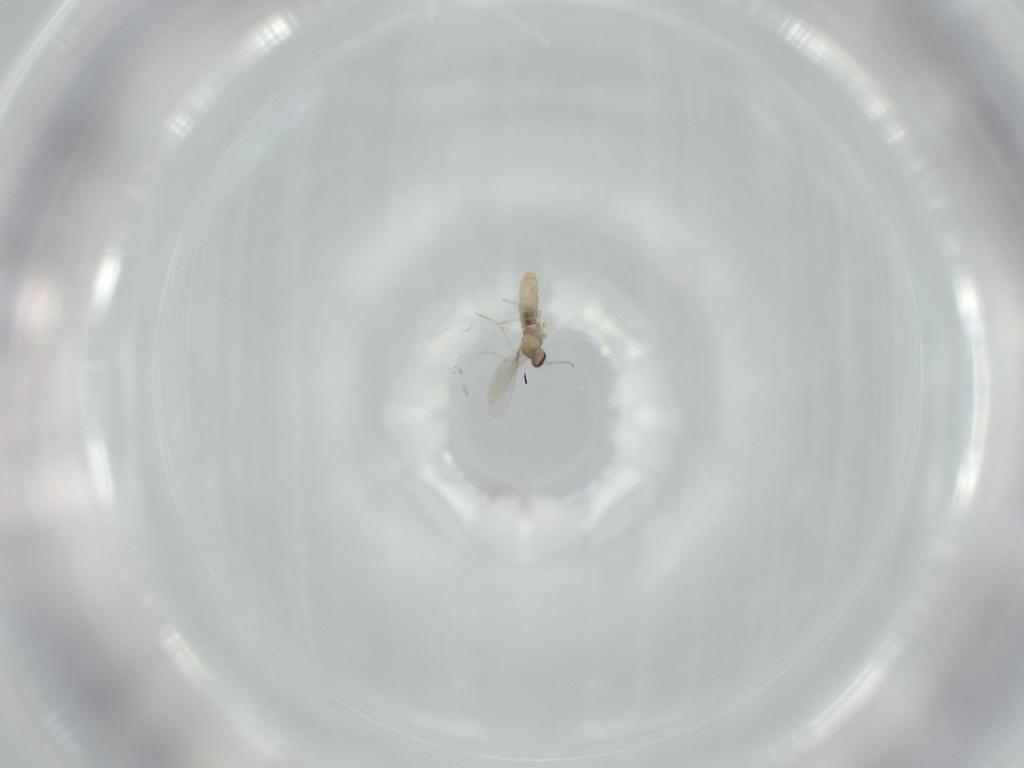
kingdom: Animalia
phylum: Arthropoda
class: Insecta
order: Diptera
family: Cecidomyiidae
